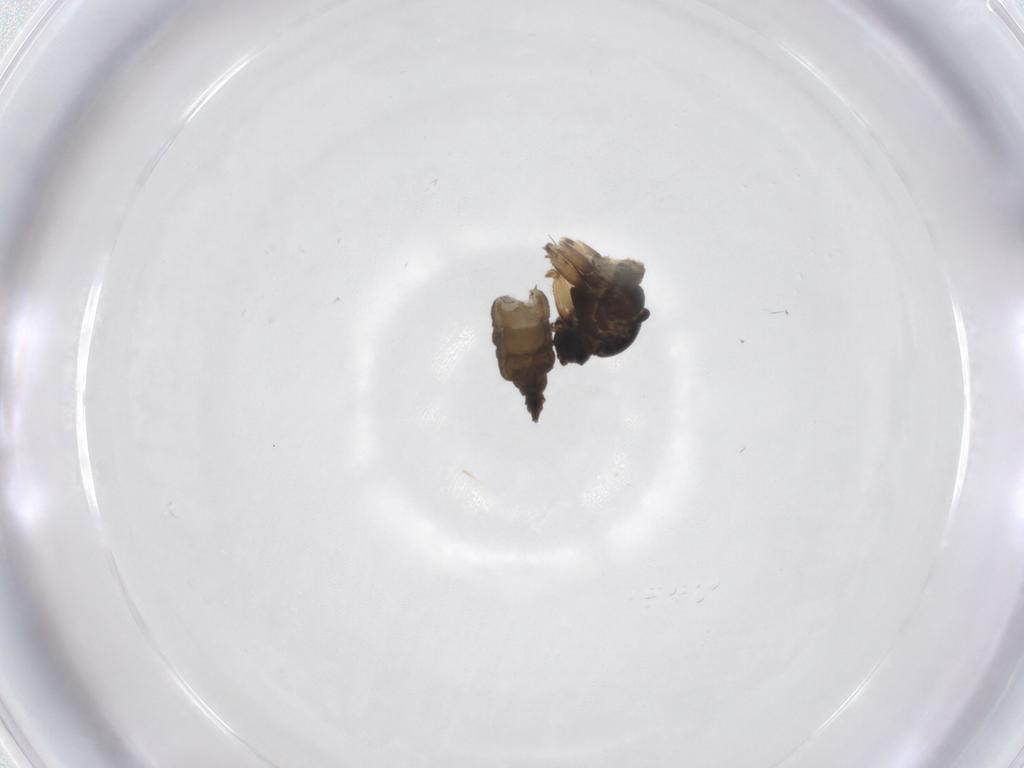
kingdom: Animalia
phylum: Arthropoda
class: Insecta
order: Diptera
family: Sciaridae
